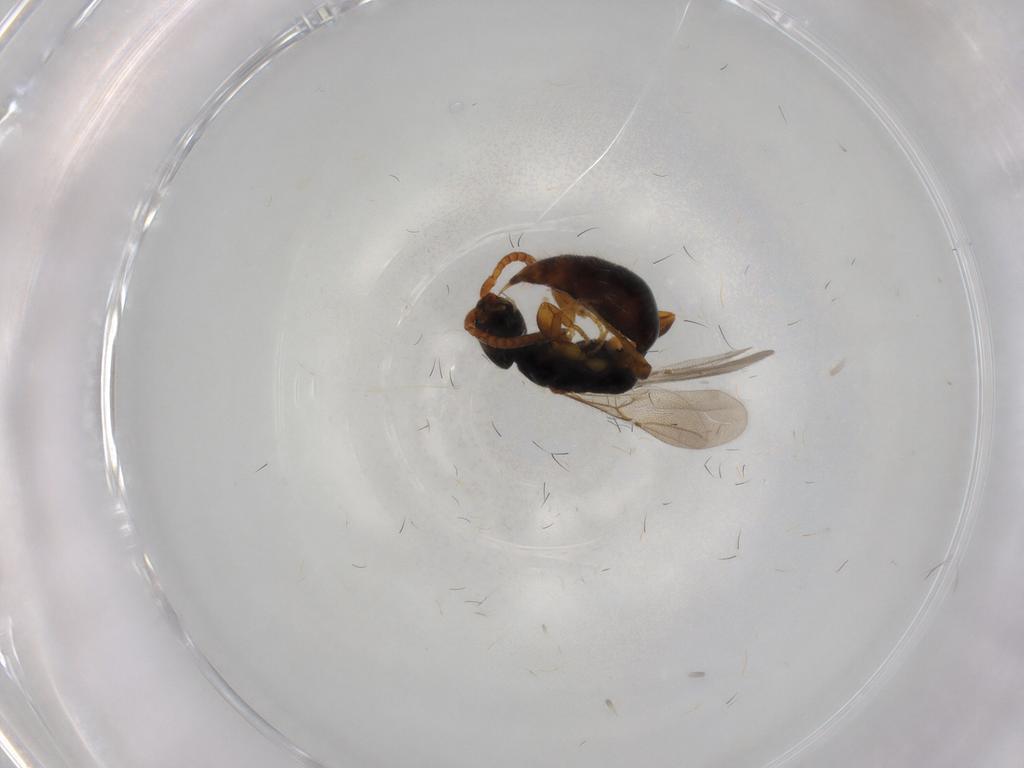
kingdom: Animalia
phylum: Arthropoda
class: Insecta
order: Hymenoptera
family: Bethylidae
